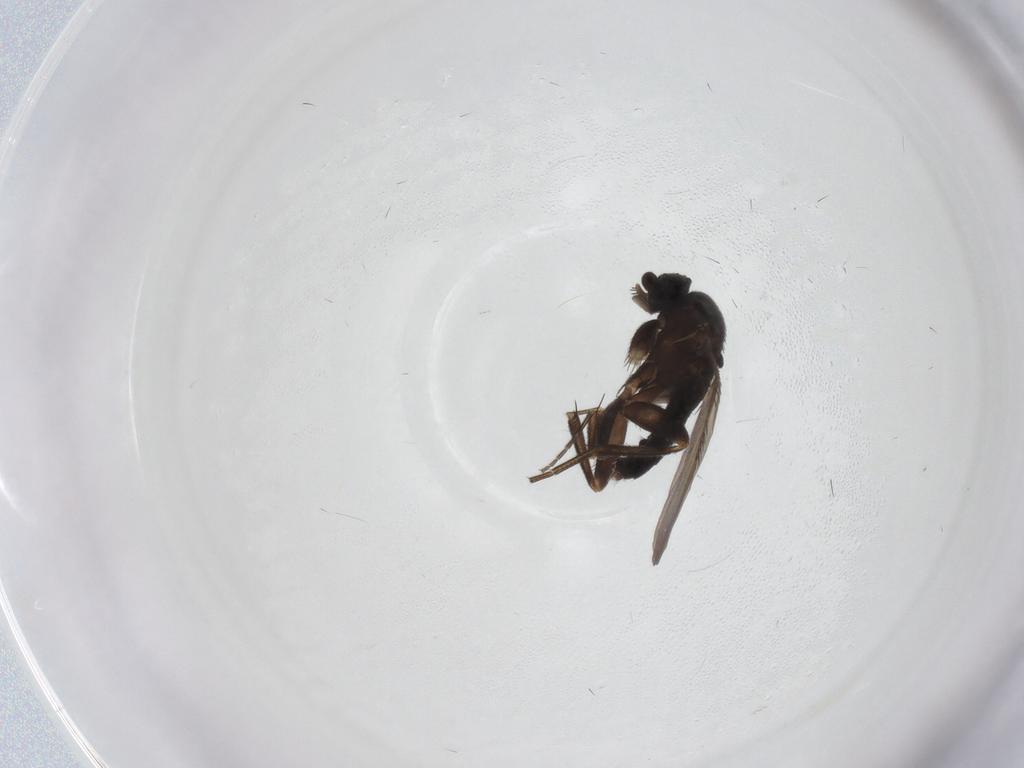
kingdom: Animalia
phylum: Arthropoda
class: Insecta
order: Diptera
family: Phoridae
